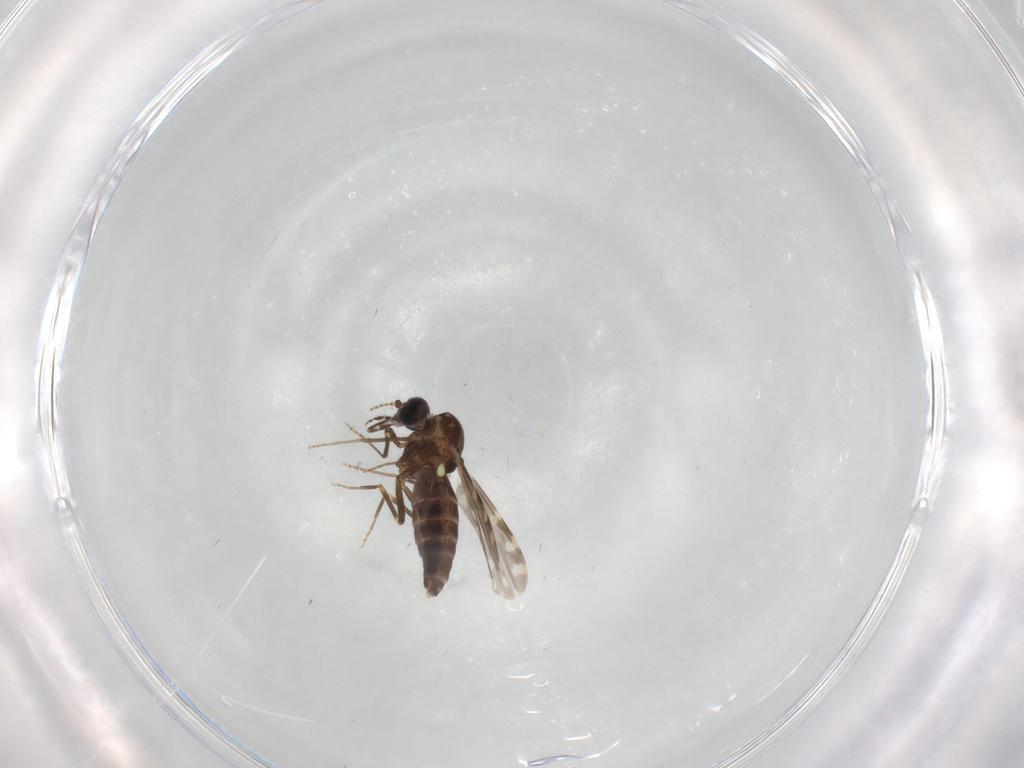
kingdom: Animalia
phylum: Arthropoda
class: Insecta
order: Diptera
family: Ceratopogonidae
